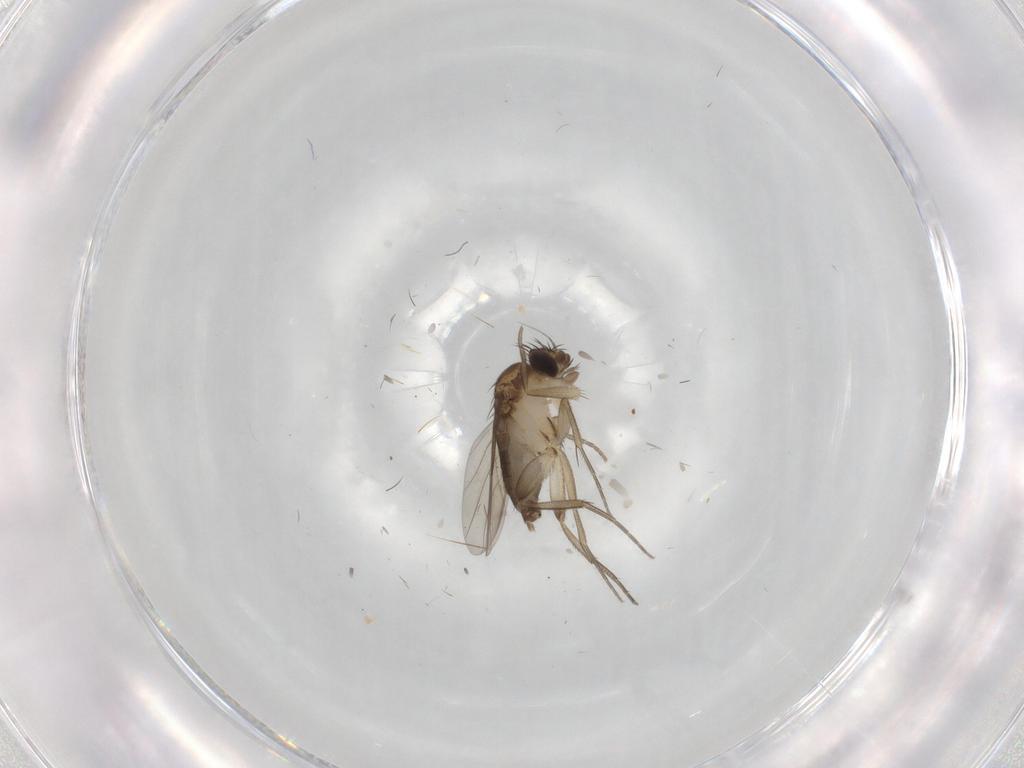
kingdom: Animalia
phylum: Arthropoda
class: Insecta
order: Diptera
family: Phoridae
